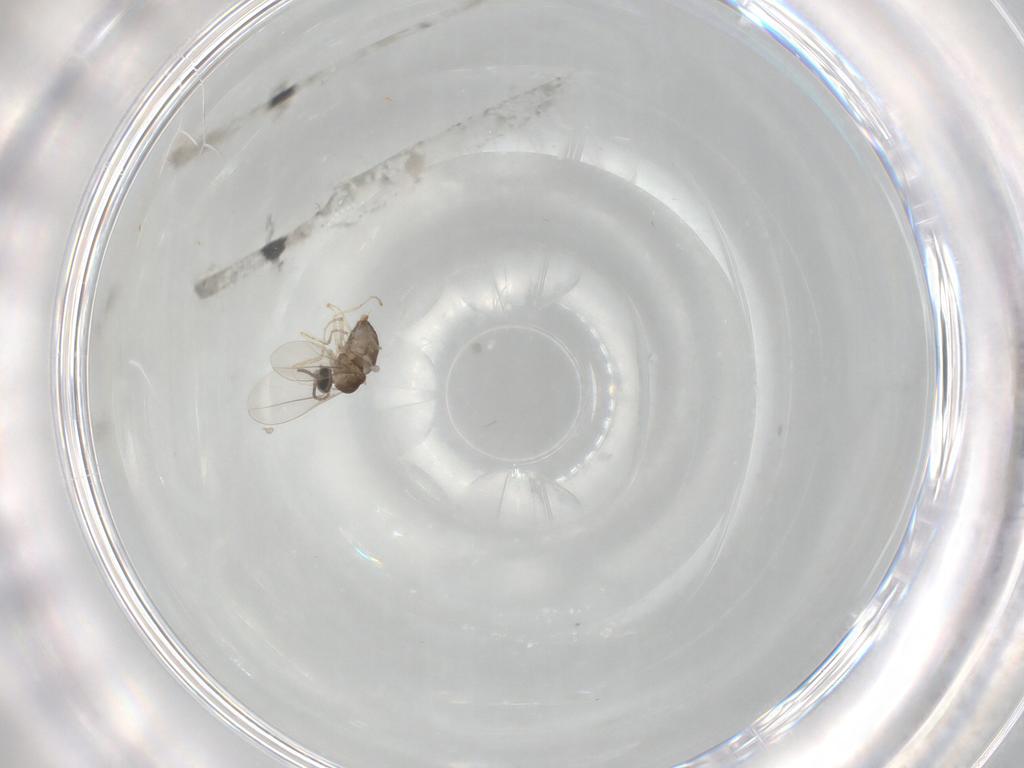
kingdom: Animalia
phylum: Arthropoda
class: Insecta
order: Diptera
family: Cecidomyiidae
